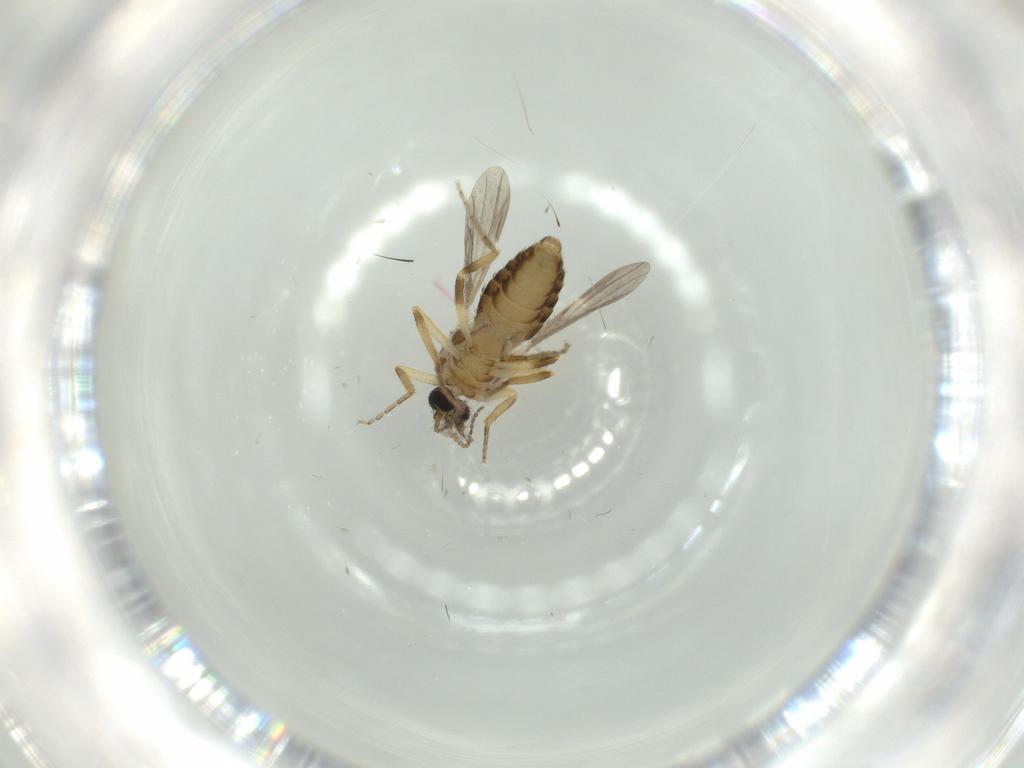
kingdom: Animalia
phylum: Arthropoda
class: Insecta
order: Diptera
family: Ceratopogonidae
